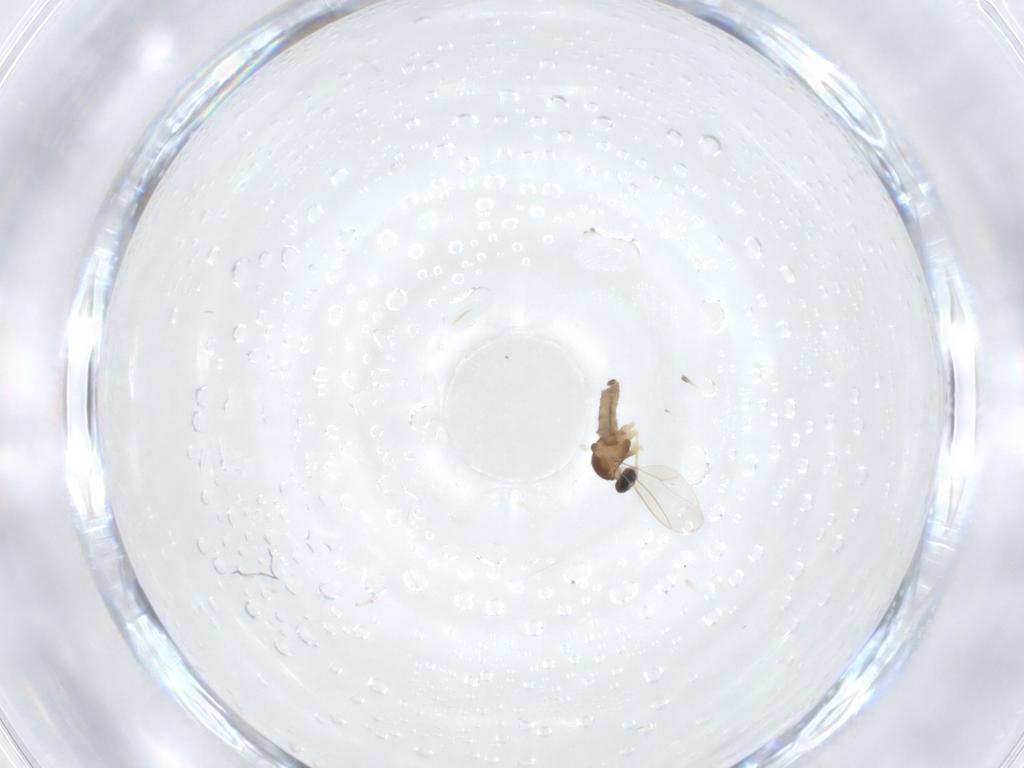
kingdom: Animalia
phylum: Arthropoda
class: Insecta
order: Diptera
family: Cecidomyiidae
